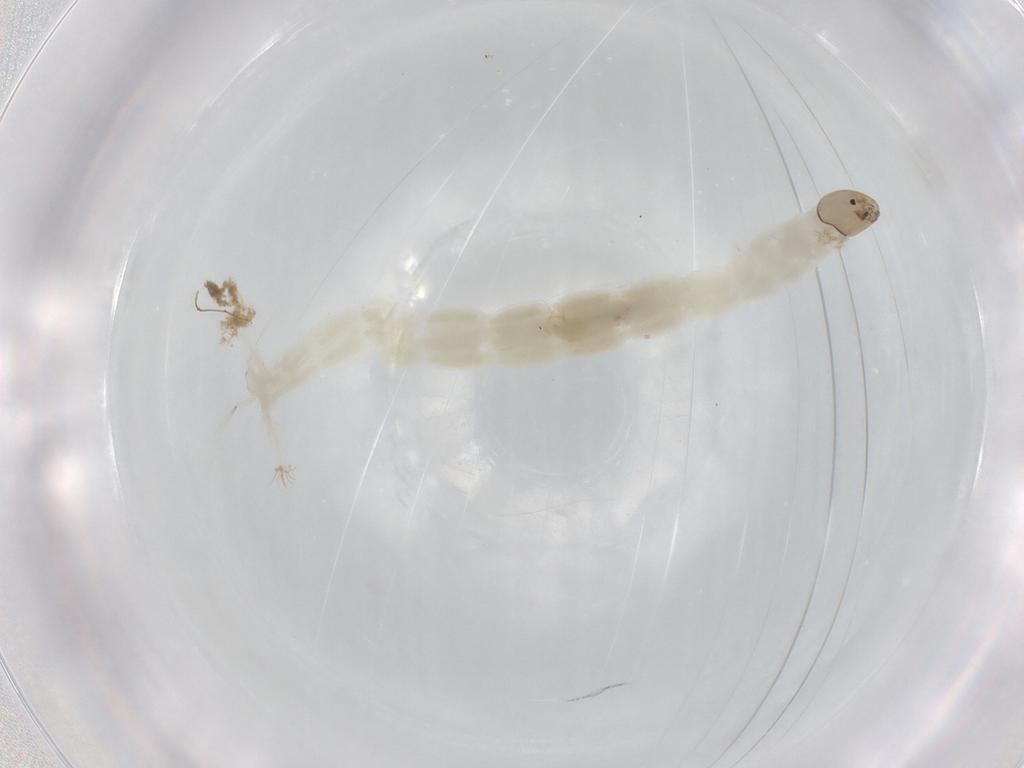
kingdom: Animalia
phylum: Arthropoda
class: Insecta
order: Diptera
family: Chironomidae
